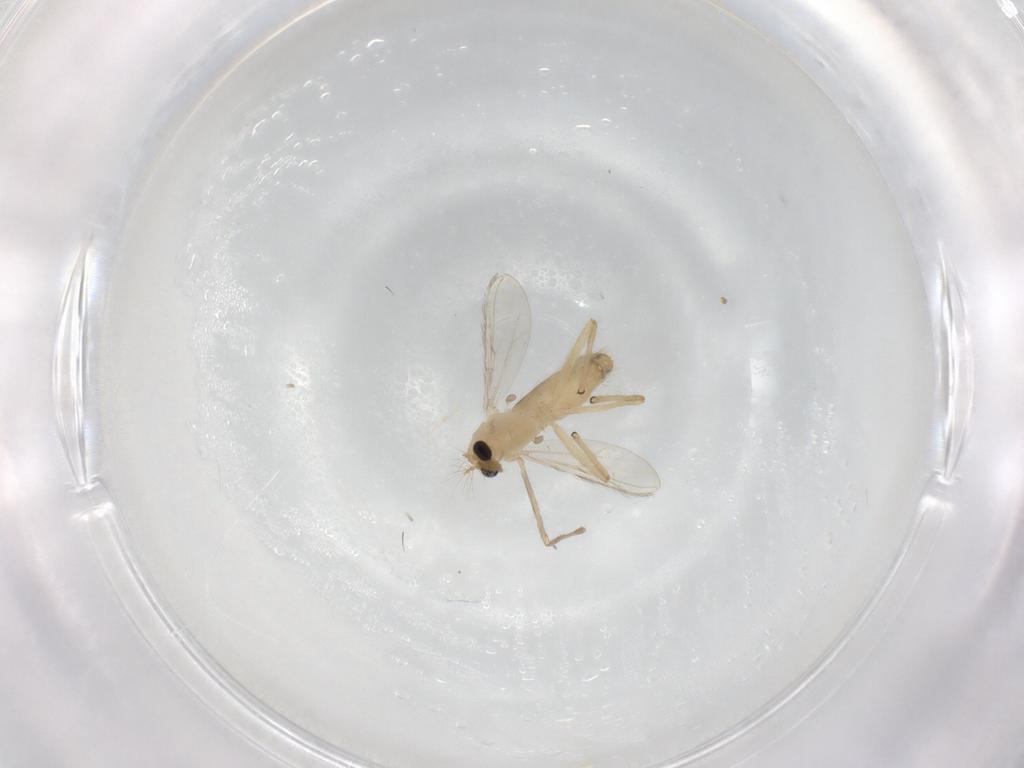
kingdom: Animalia
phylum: Arthropoda
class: Insecta
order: Diptera
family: Chironomidae
